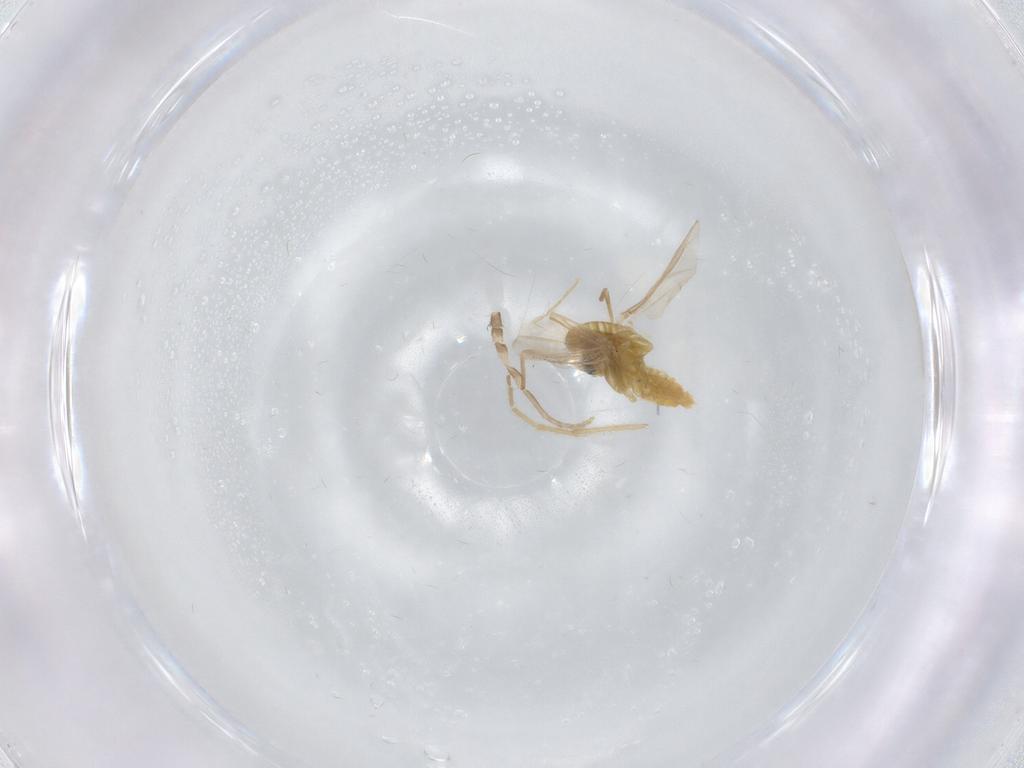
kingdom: Animalia
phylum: Arthropoda
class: Insecta
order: Diptera
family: Chironomidae
